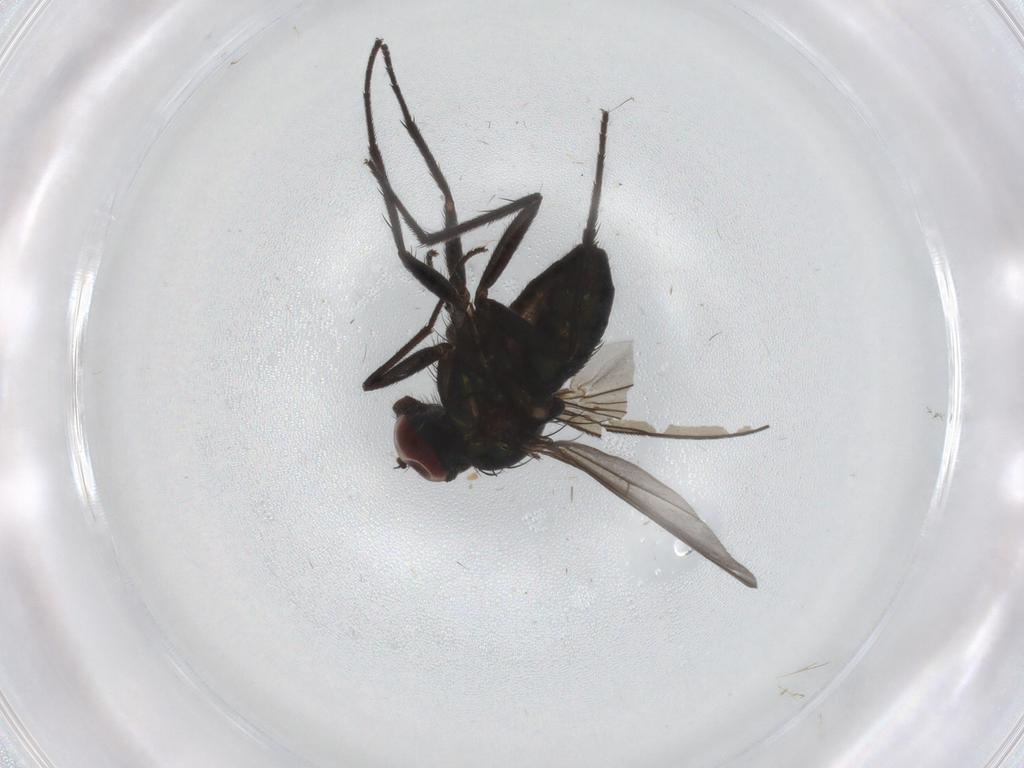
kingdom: Animalia
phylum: Arthropoda
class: Insecta
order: Diptera
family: Dolichopodidae
